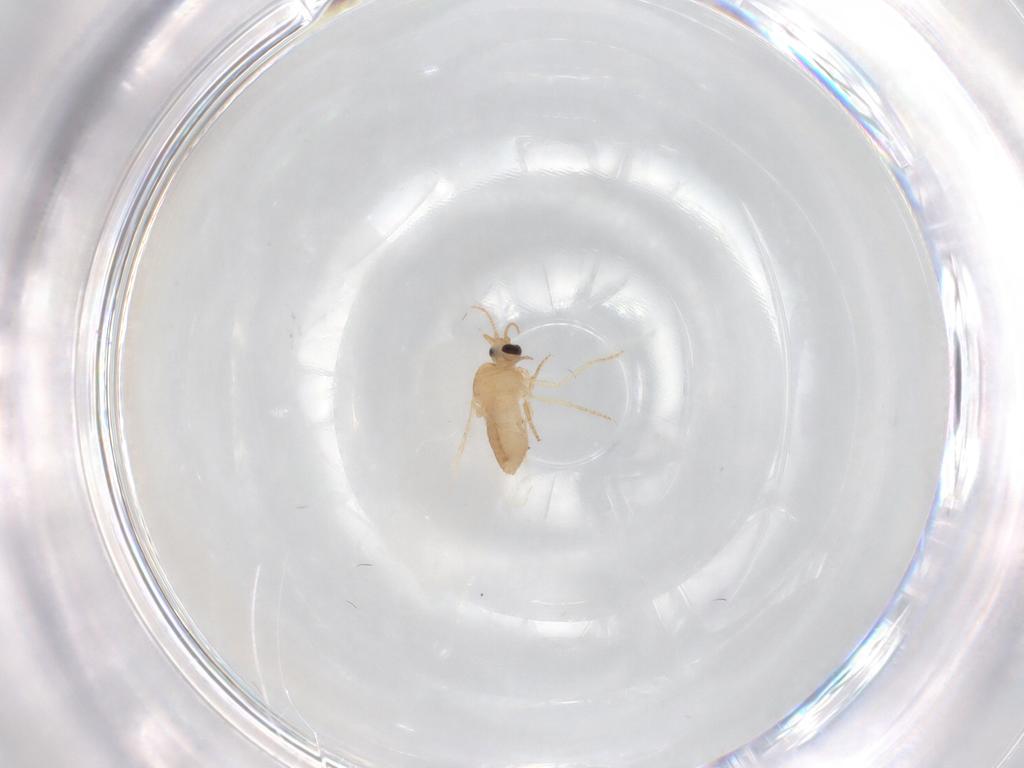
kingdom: Animalia
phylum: Arthropoda
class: Insecta
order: Diptera
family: Ceratopogonidae
